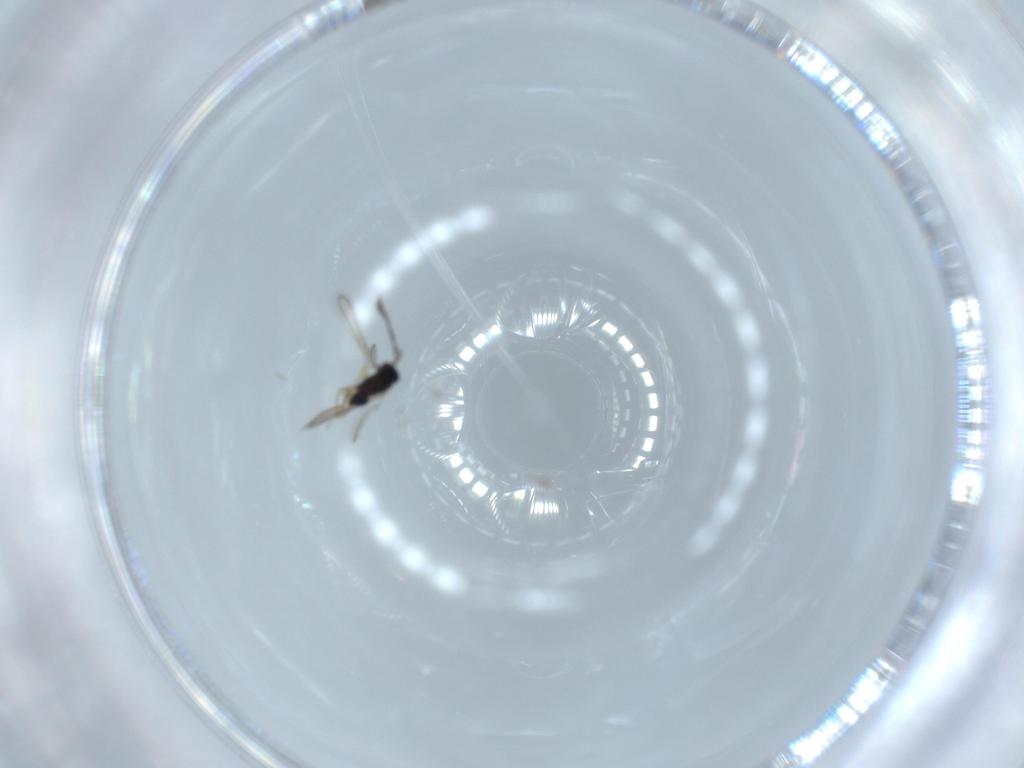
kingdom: Animalia
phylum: Arthropoda
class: Insecta
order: Hymenoptera
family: Formicidae
